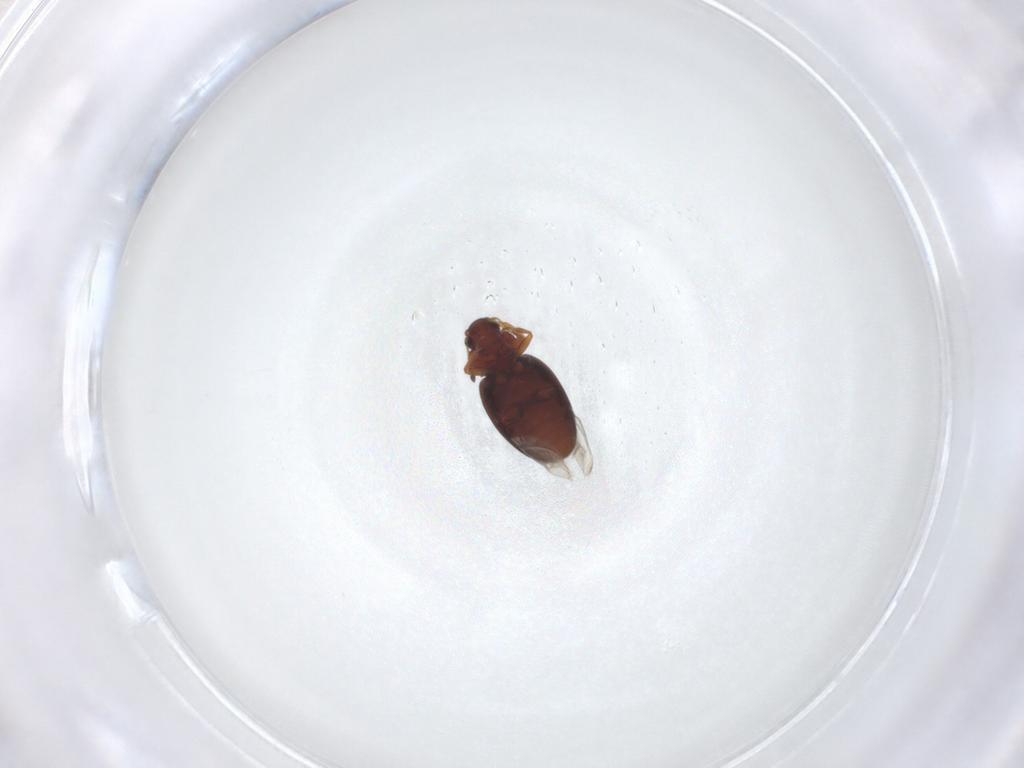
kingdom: Animalia
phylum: Arthropoda
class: Insecta
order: Coleoptera
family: Latridiidae
